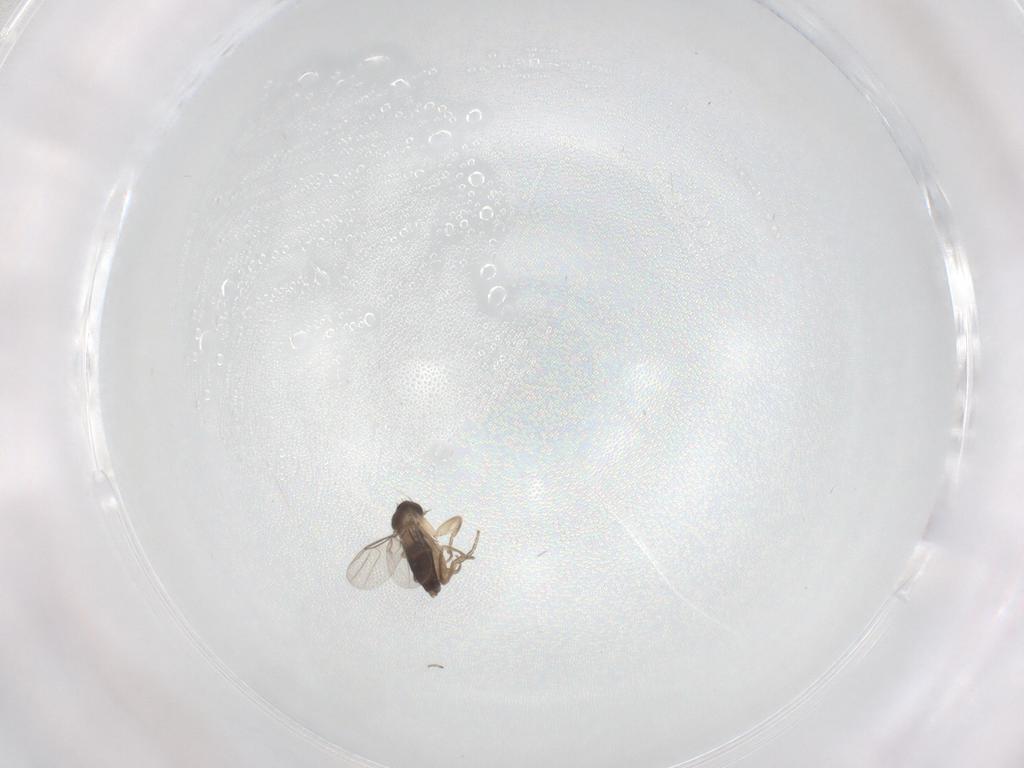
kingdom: Animalia
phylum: Arthropoda
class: Insecta
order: Diptera
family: Phoridae
